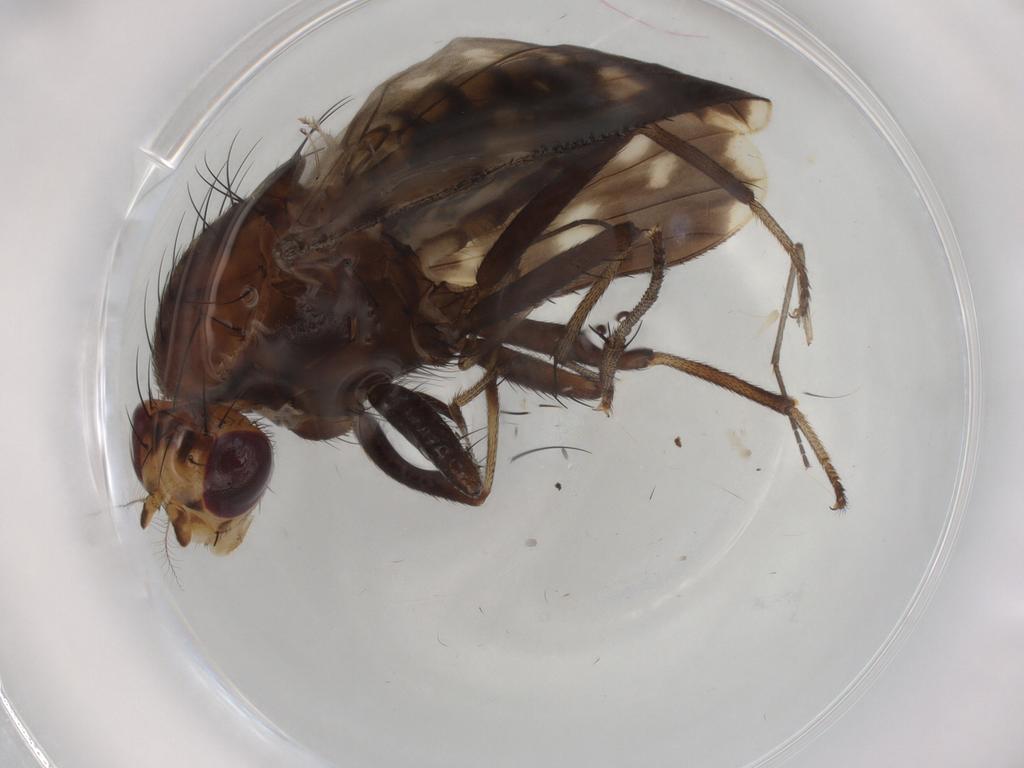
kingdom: Animalia
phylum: Arthropoda
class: Insecta
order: Diptera
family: Heleomyzidae
